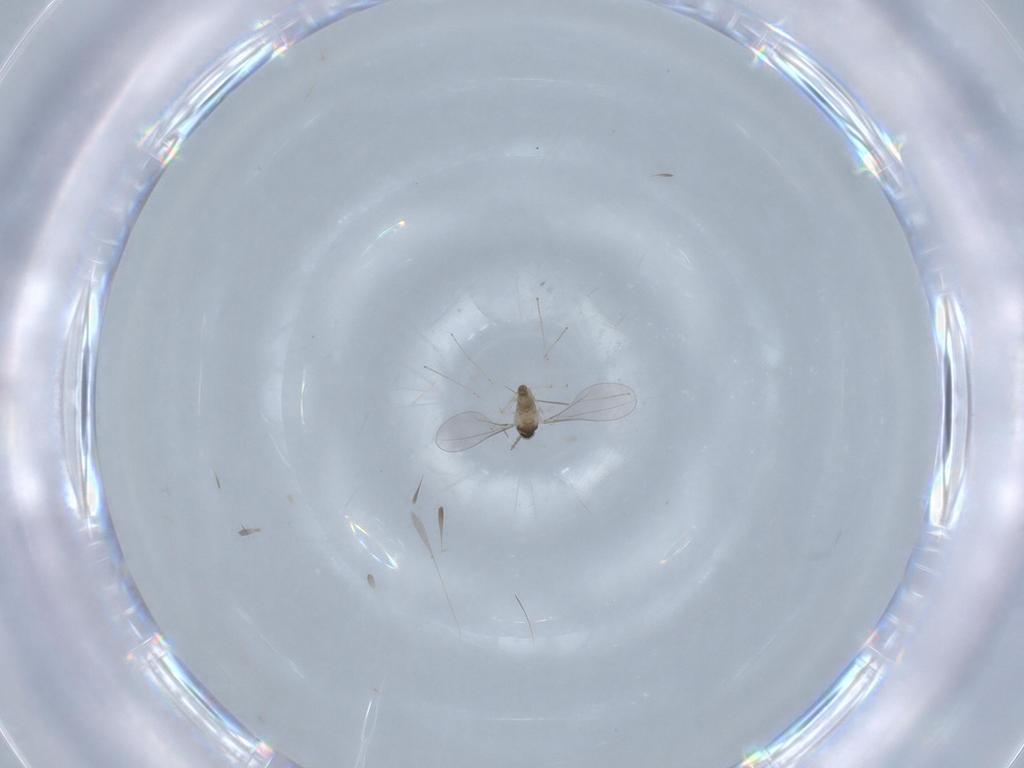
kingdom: Animalia
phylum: Arthropoda
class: Insecta
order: Diptera
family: Cecidomyiidae
